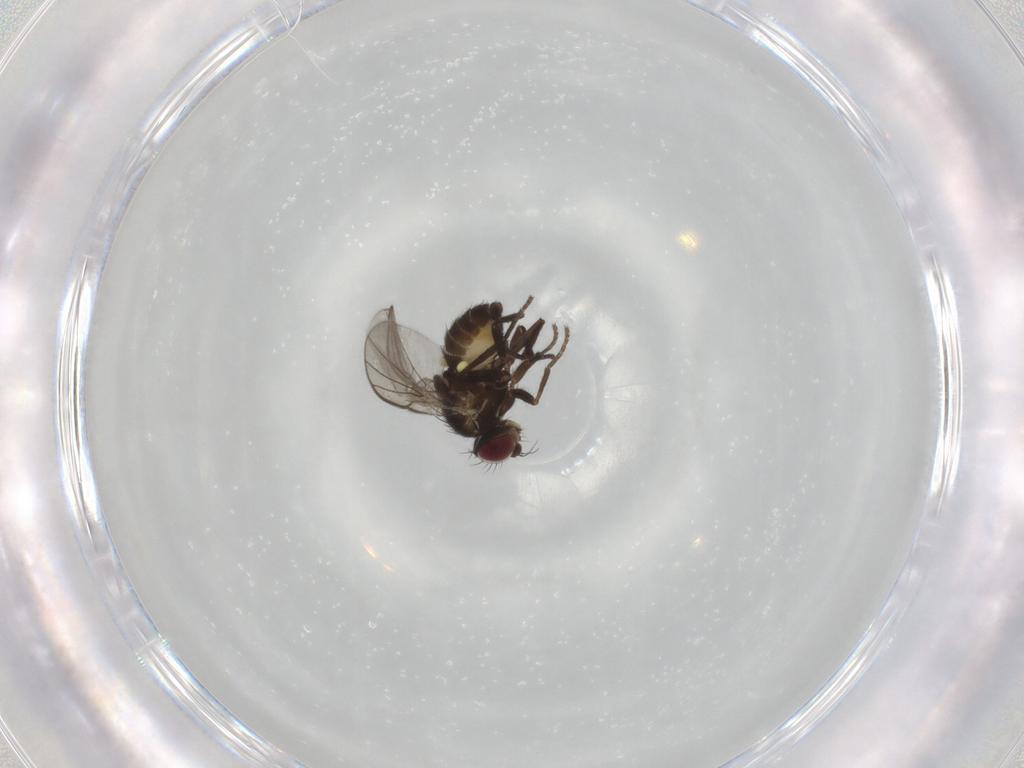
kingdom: Animalia
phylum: Arthropoda
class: Insecta
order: Diptera
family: Agromyzidae
